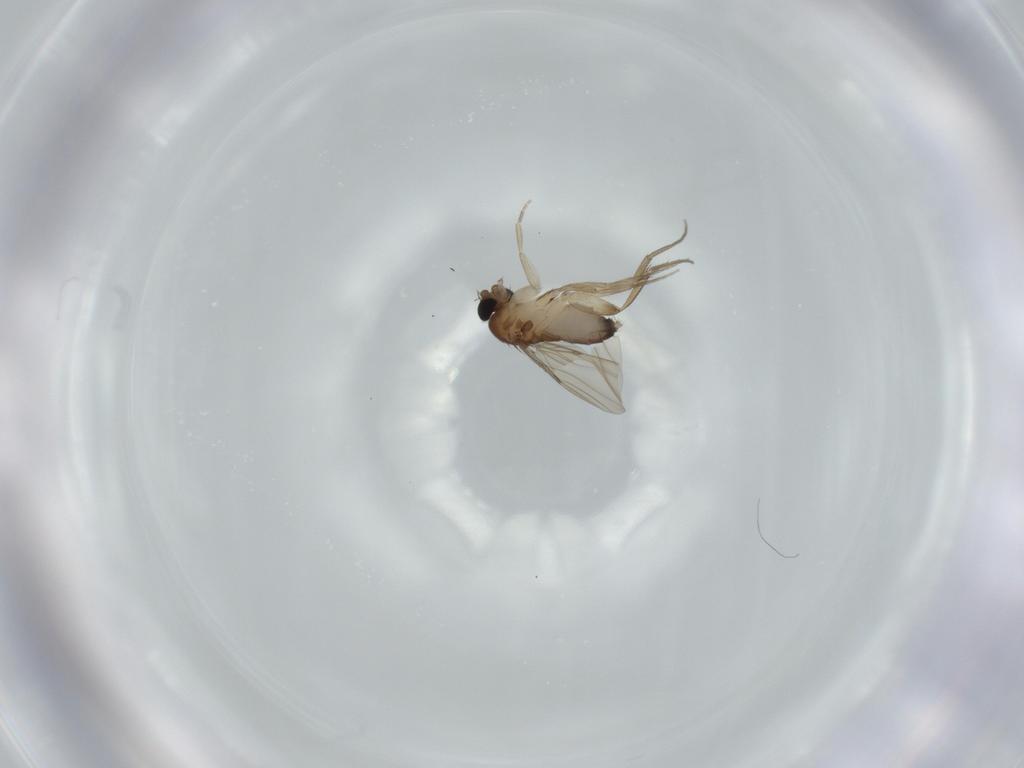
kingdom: Animalia
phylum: Arthropoda
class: Insecta
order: Diptera
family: Phoridae
